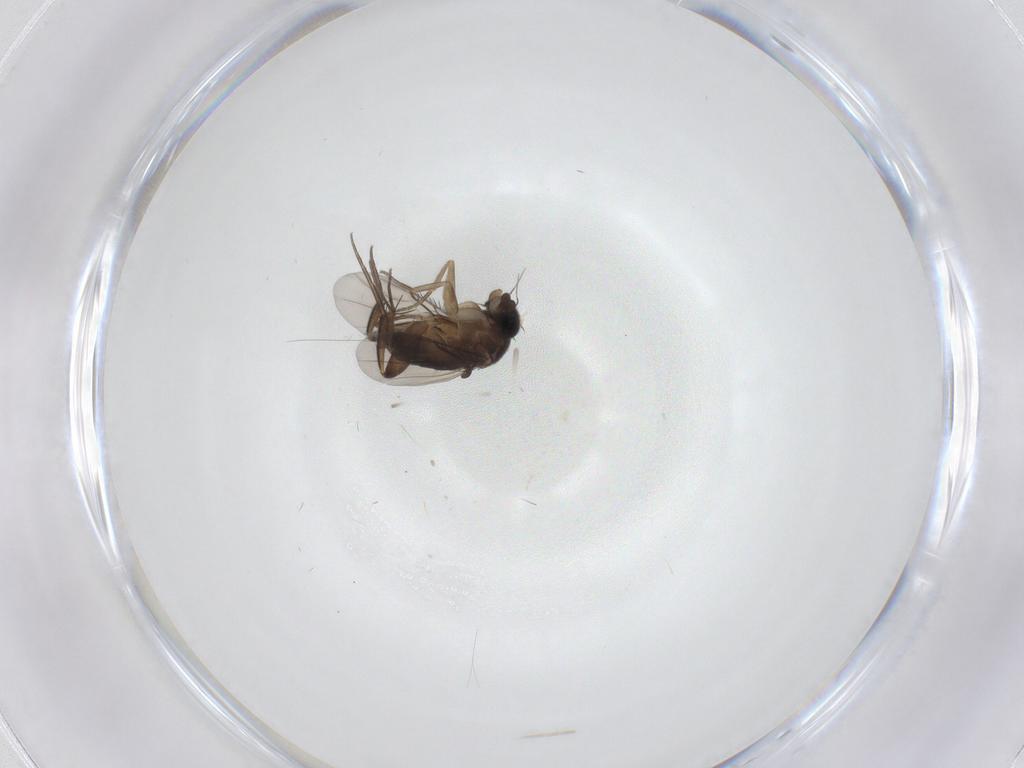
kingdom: Animalia
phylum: Arthropoda
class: Insecta
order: Diptera
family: Phoridae
